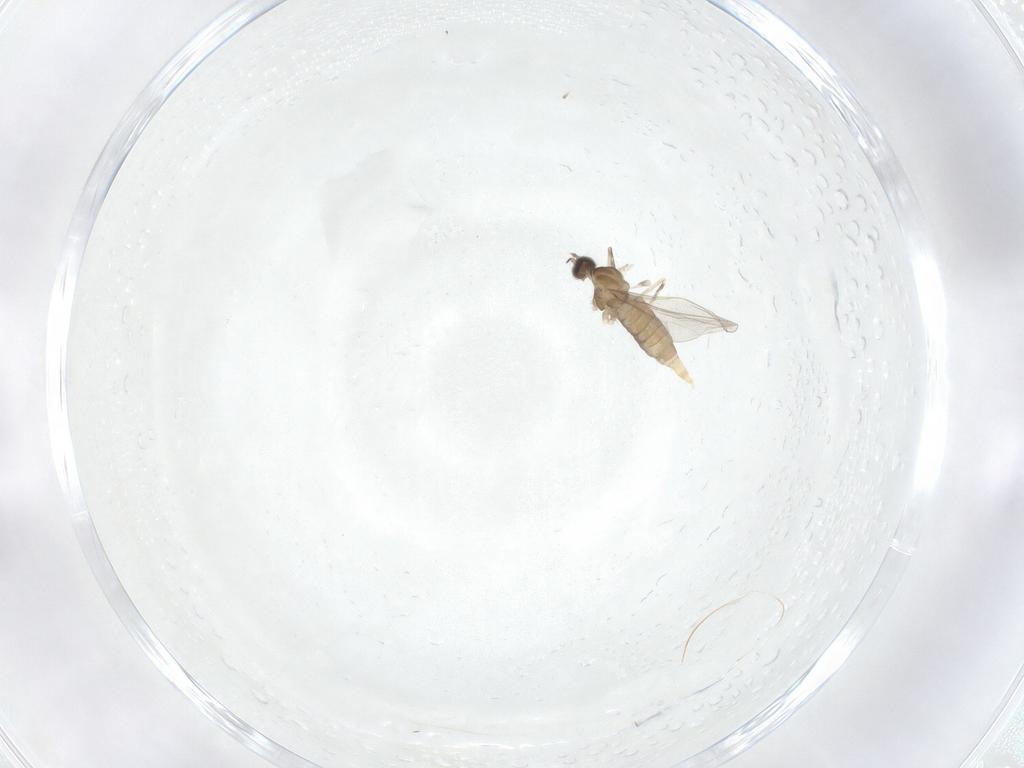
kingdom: Animalia
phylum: Arthropoda
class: Insecta
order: Diptera
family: Cecidomyiidae
